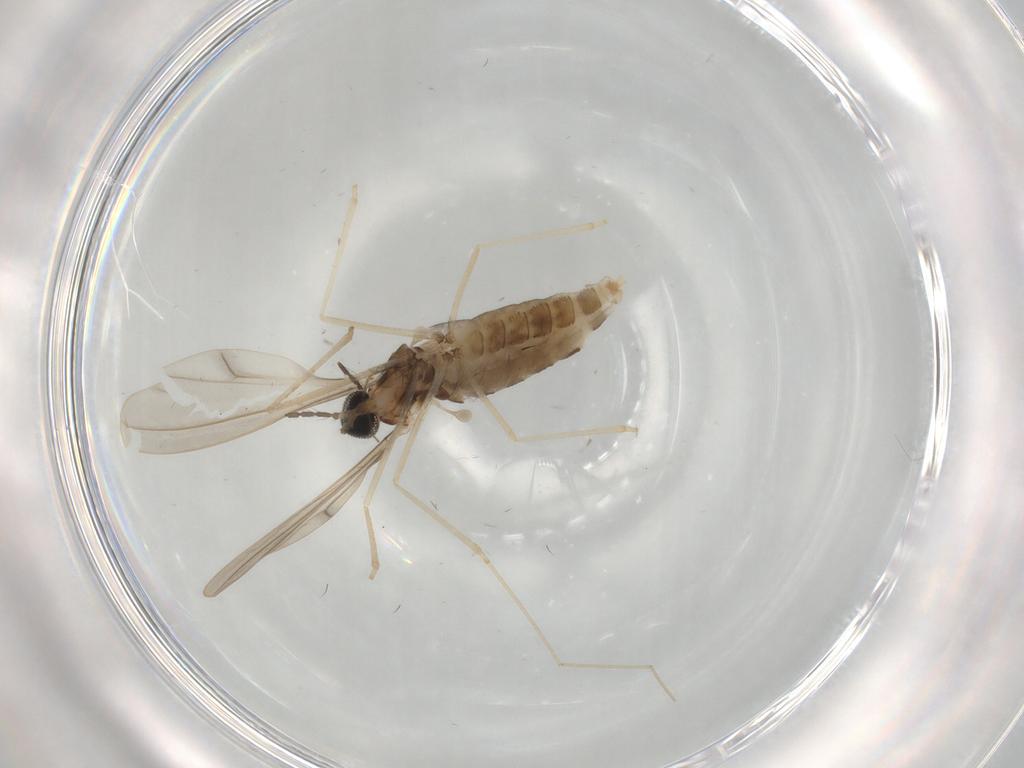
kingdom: Animalia
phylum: Arthropoda
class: Insecta
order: Diptera
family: Cecidomyiidae
